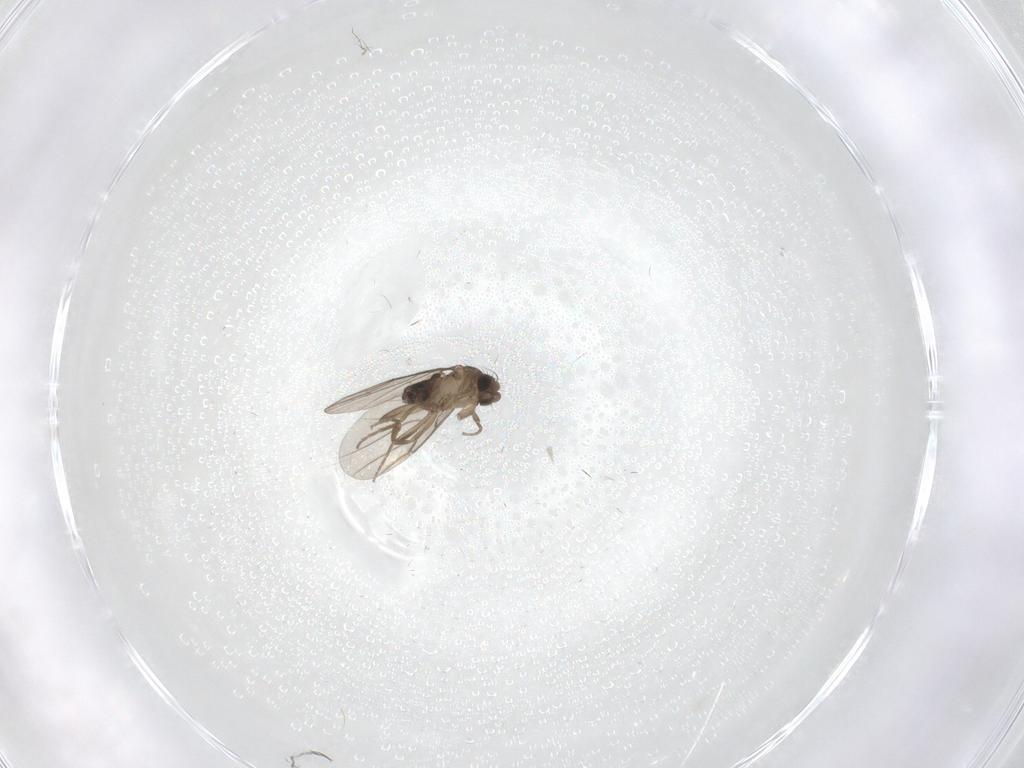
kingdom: Animalia
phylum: Arthropoda
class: Insecta
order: Diptera
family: Phoridae
